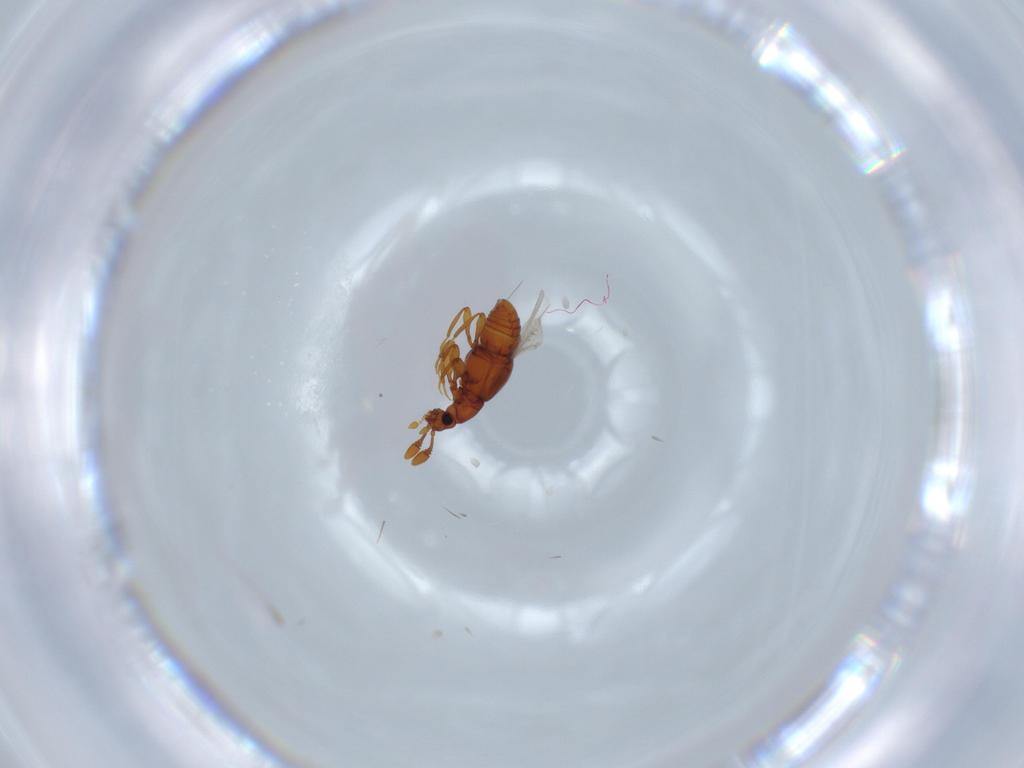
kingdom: Animalia
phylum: Arthropoda
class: Insecta
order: Coleoptera
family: Staphylinidae
